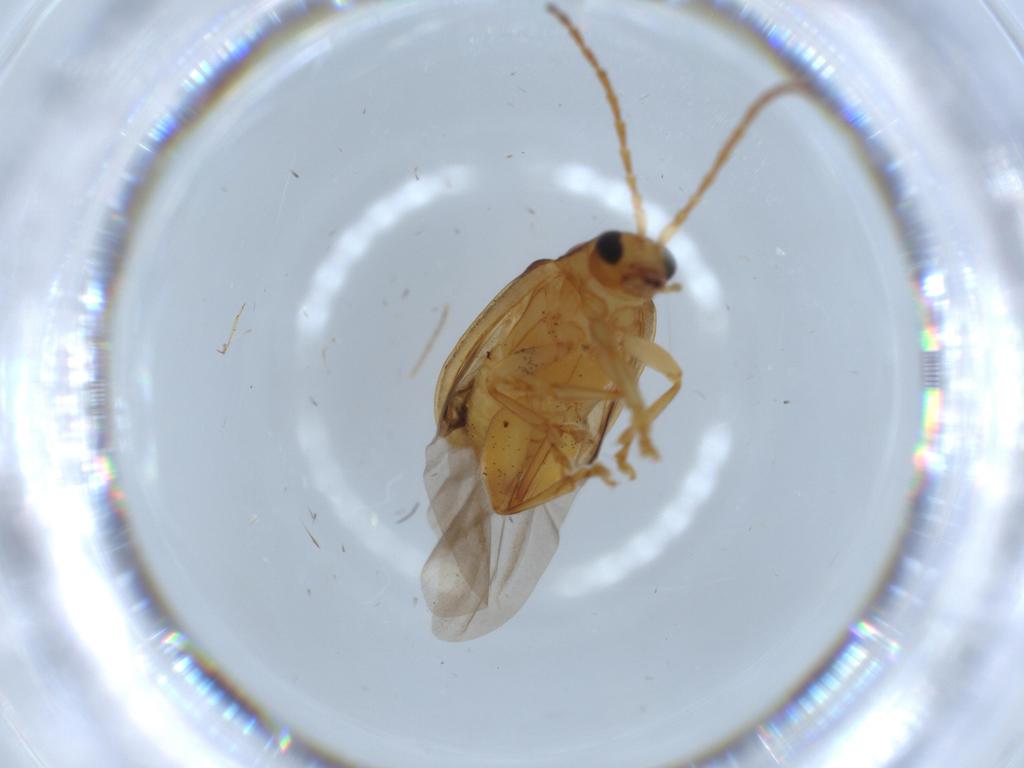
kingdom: Animalia
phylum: Arthropoda
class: Insecta
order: Coleoptera
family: Chrysomelidae
